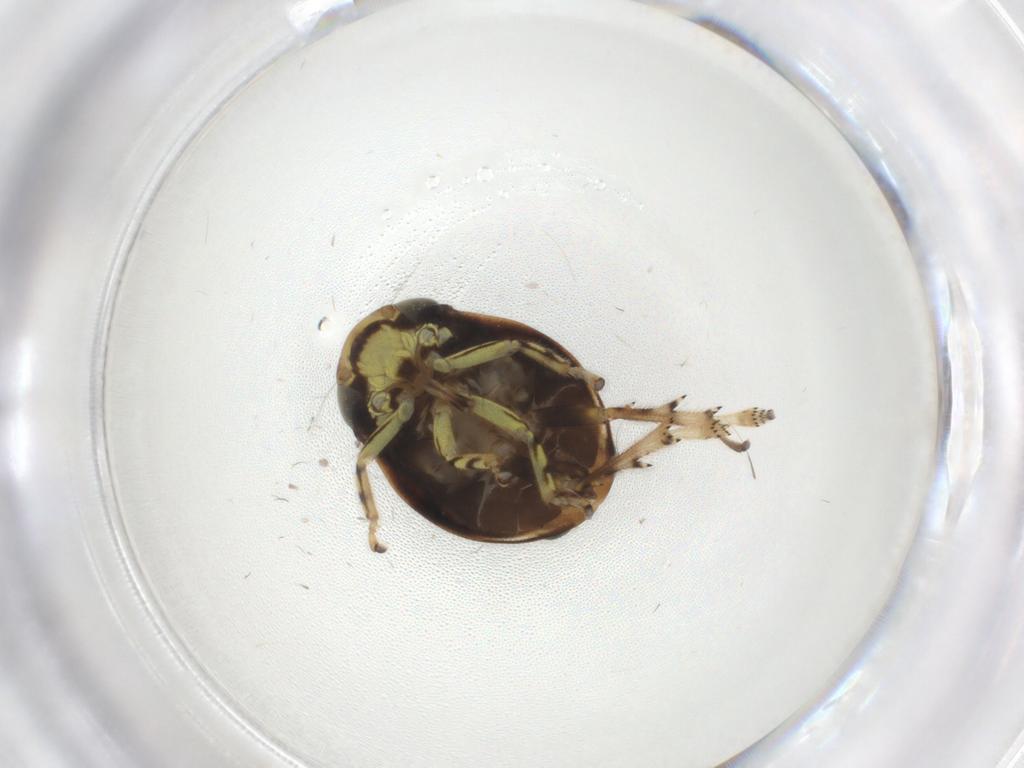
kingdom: Animalia
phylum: Arthropoda
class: Insecta
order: Hemiptera
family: Clastopteridae
